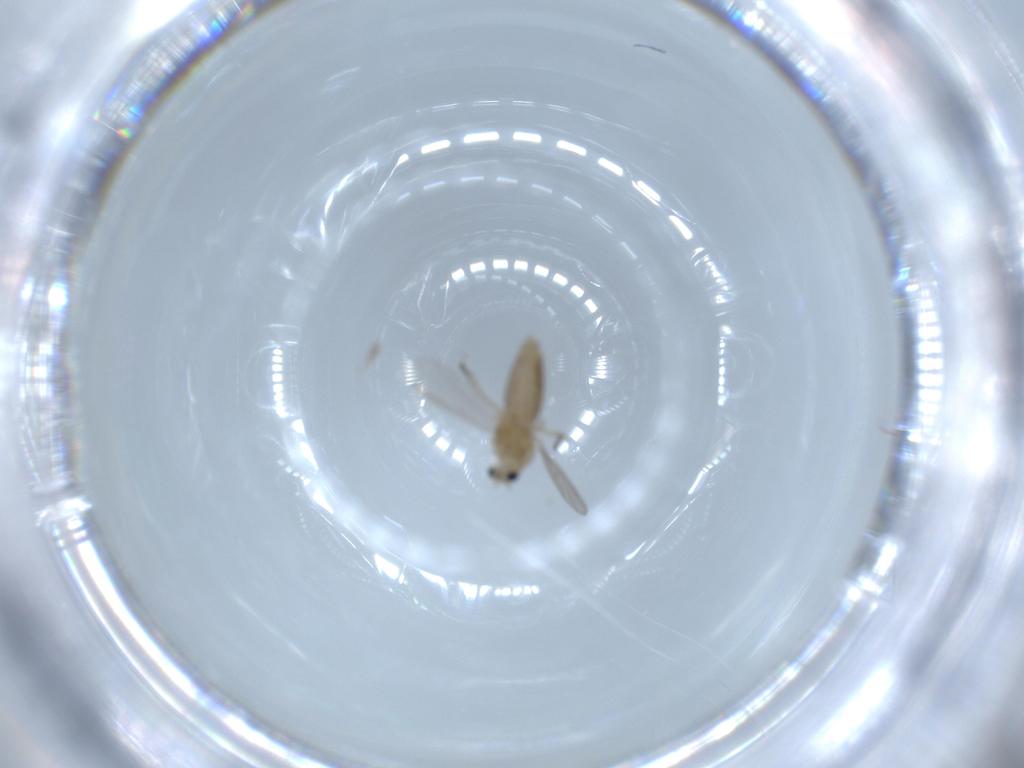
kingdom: Animalia
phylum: Arthropoda
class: Insecta
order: Diptera
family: Chironomidae
